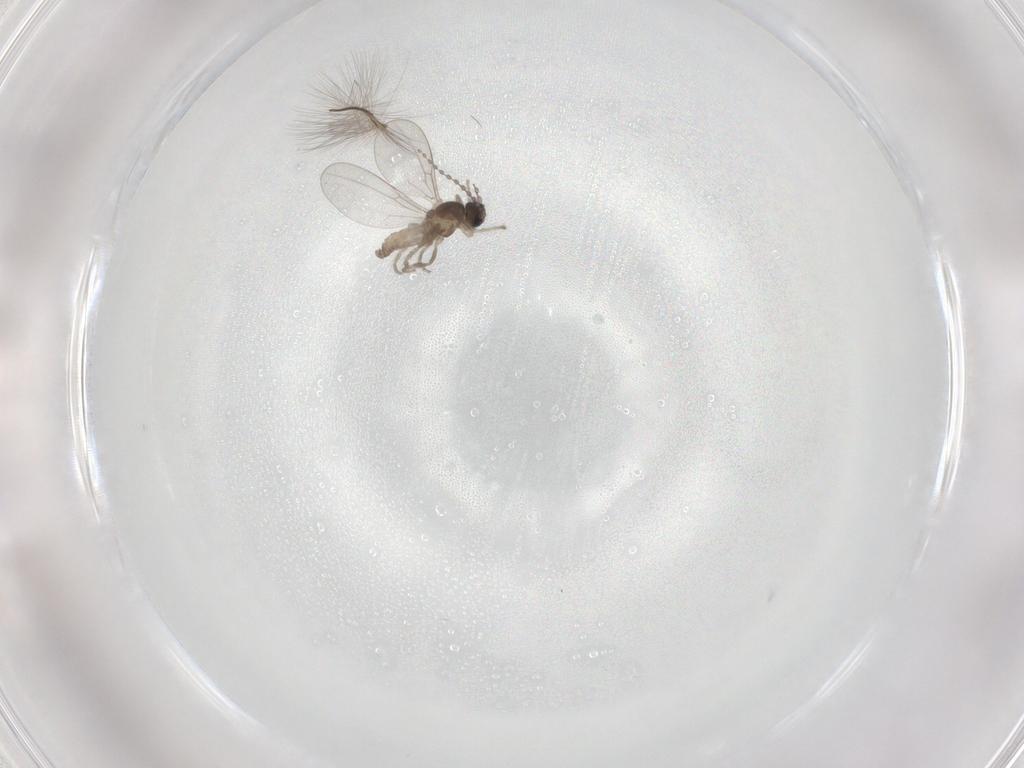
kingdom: Animalia
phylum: Arthropoda
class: Insecta
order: Diptera
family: Cecidomyiidae
